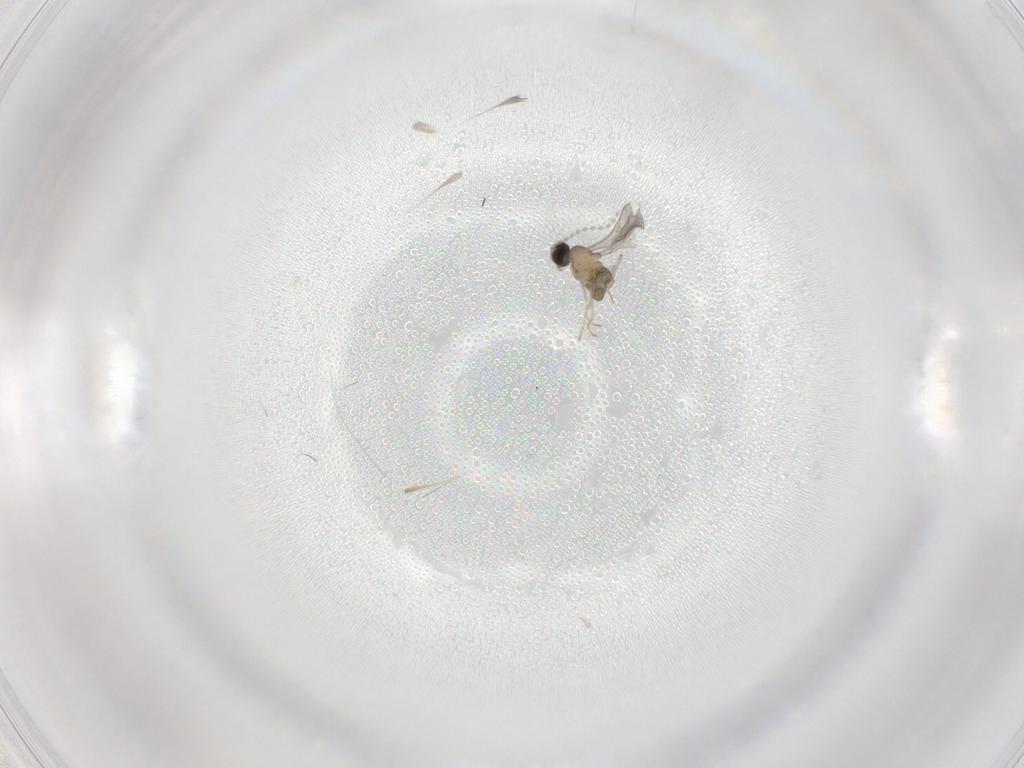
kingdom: Animalia
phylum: Arthropoda
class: Insecta
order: Diptera
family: Cecidomyiidae
